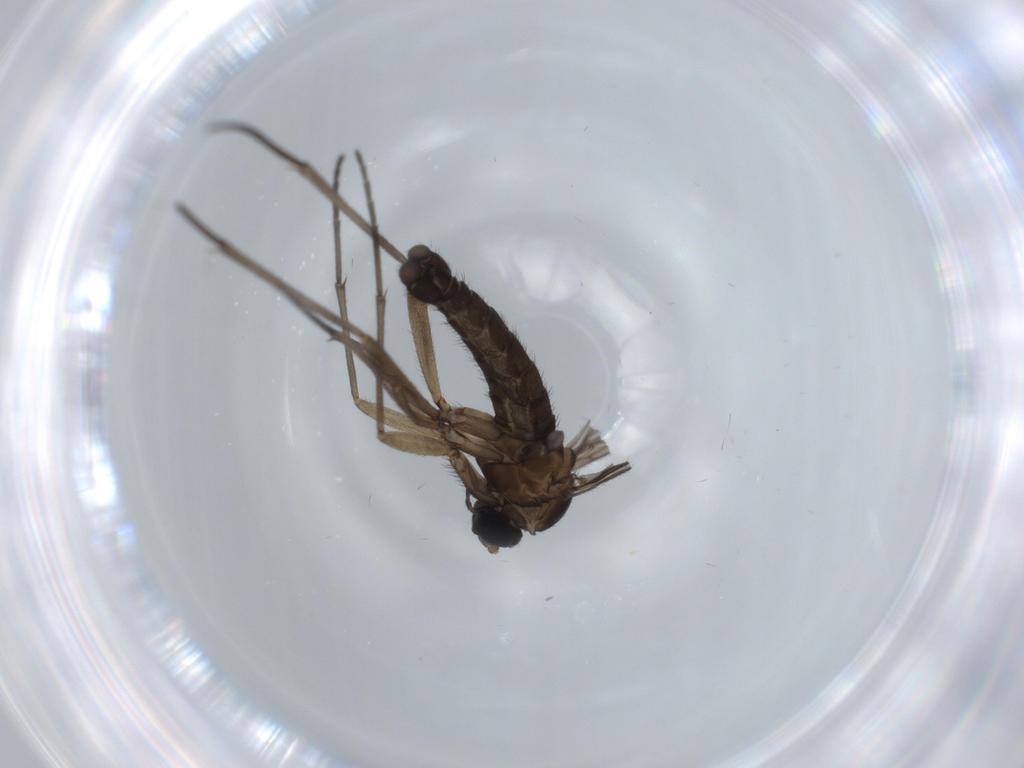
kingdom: Animalia
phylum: Arthropoda
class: Insecta
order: Diptera
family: Sciaridae
